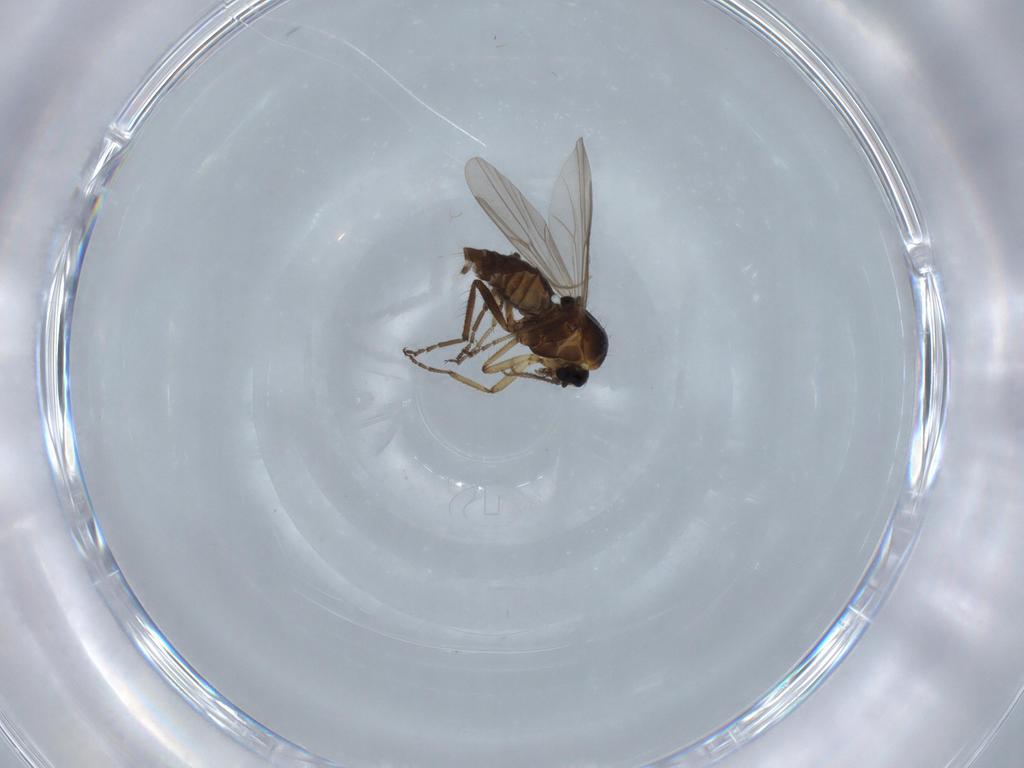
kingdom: Animalia
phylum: Arthropoda
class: Insecta
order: Diptera
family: Ceratopogonidae
